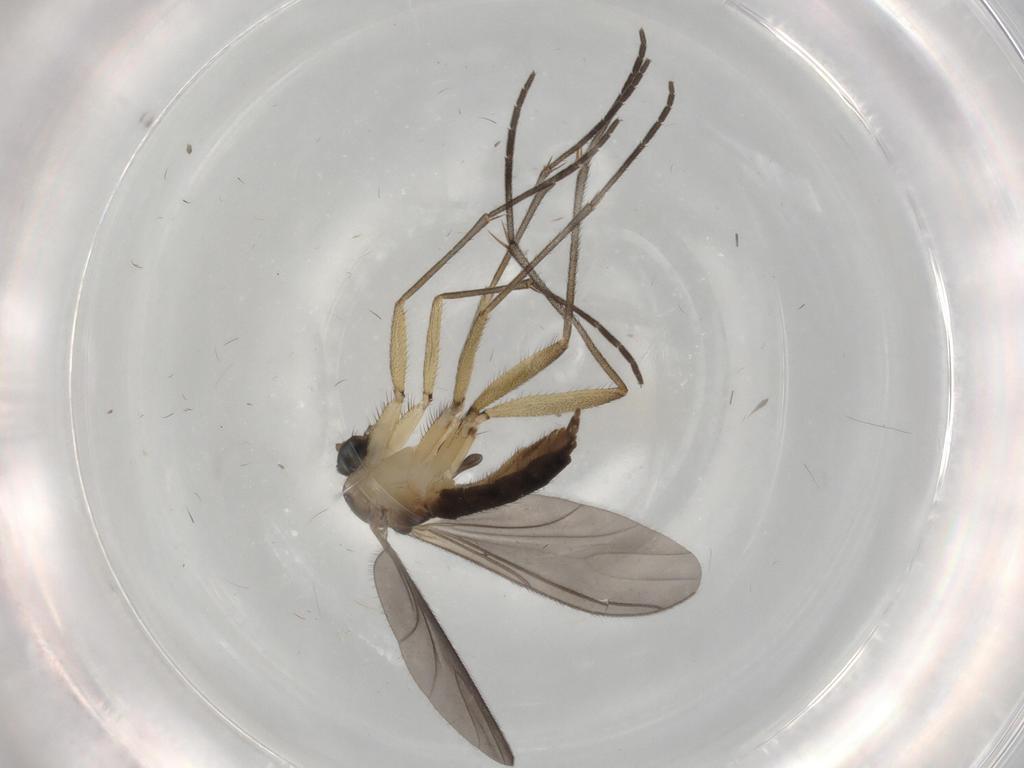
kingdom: Animalia
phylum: Arthropoda
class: Insecta
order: Diptera
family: Sciaridae
